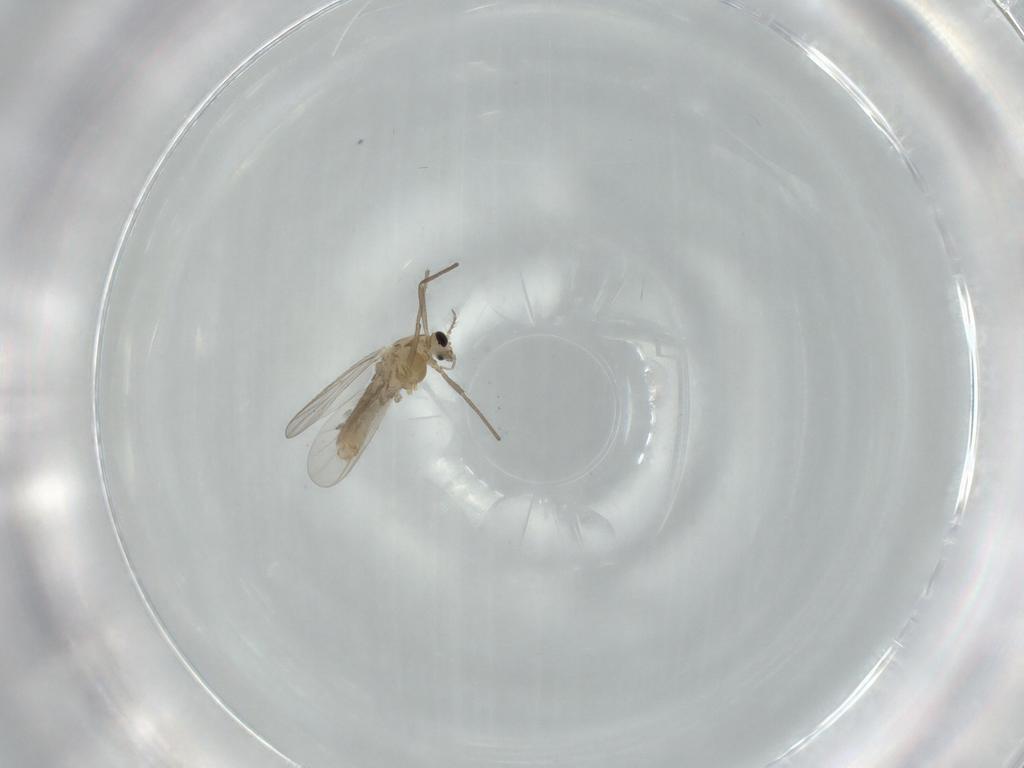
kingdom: Animalia
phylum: Arthropoda
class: Insecta
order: Diptera
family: Chironomidae
